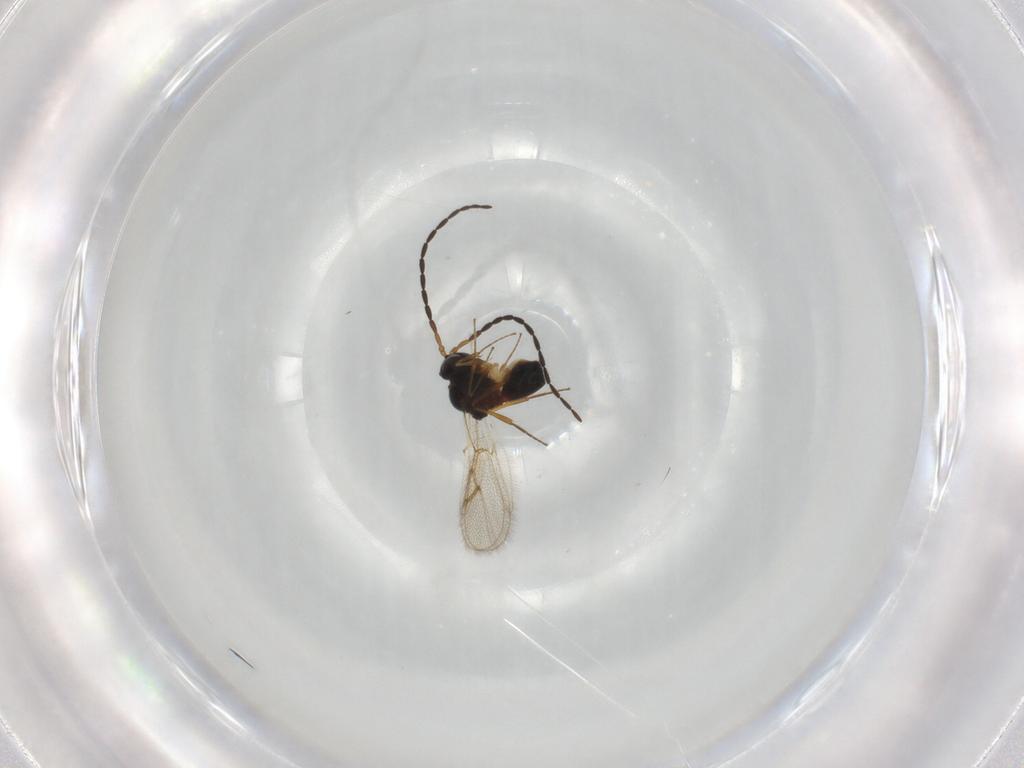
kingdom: Animalia
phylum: Arthropoda
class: Insecta
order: Hymenoptera
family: Figitidae
